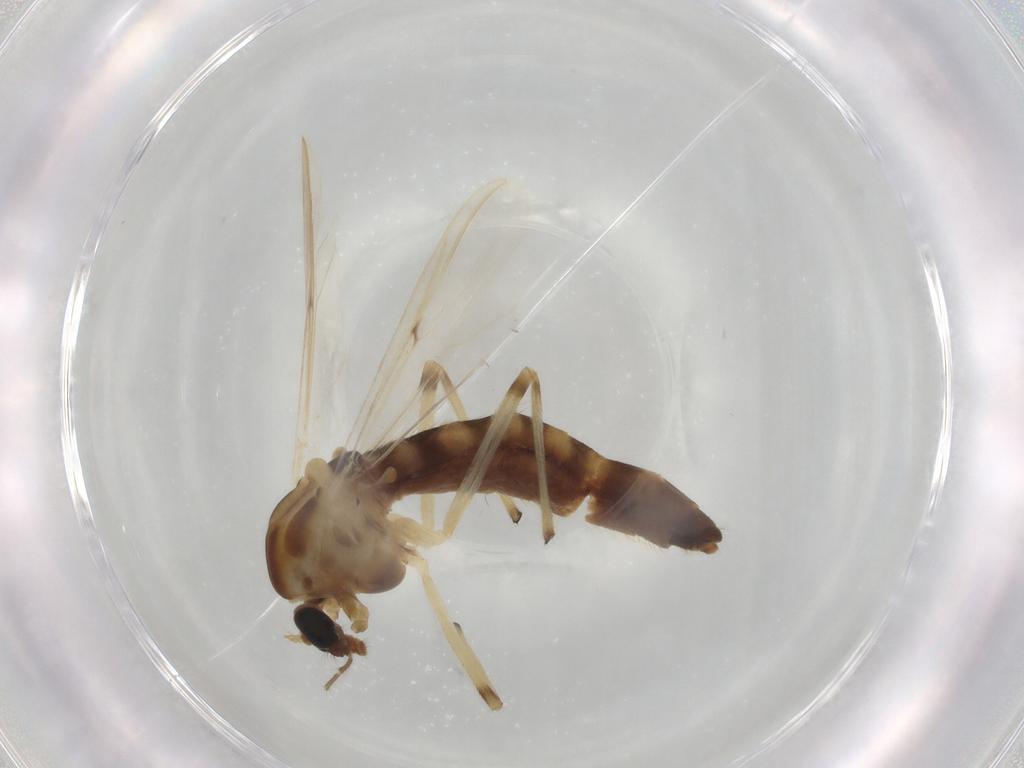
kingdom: Animalia
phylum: Arthropoda
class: Insecta
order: Diptera
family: Chironomidae
